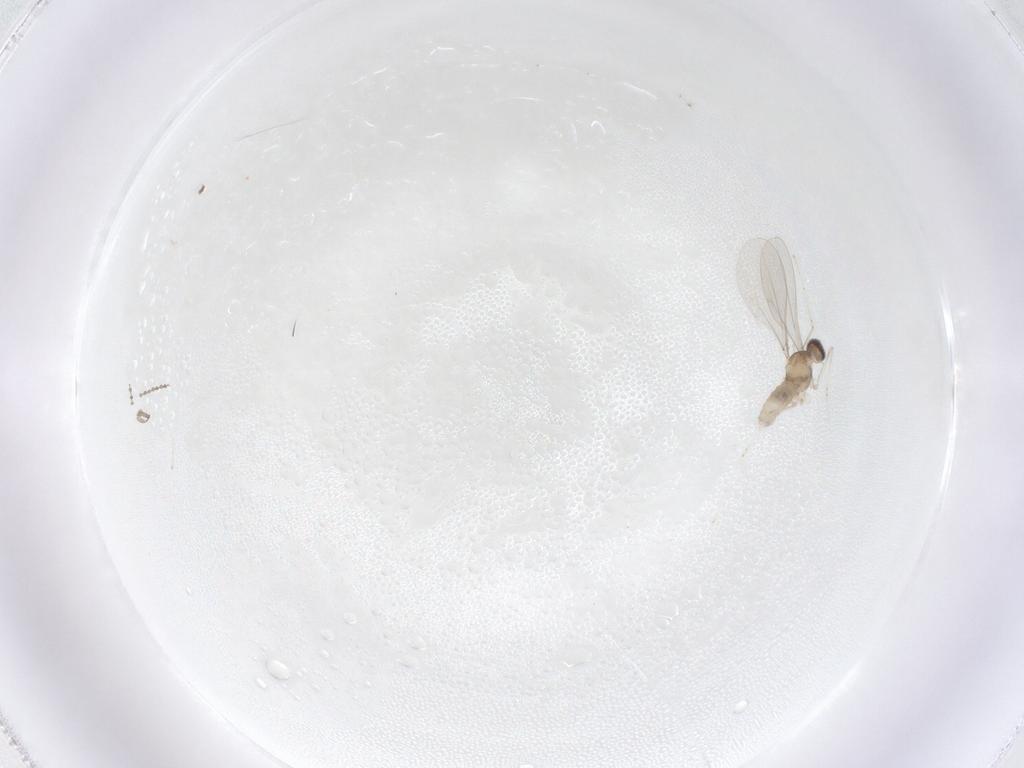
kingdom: Animalia
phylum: Arthropoda
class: Insecta
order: Diptera
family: Cecidomyiidae
